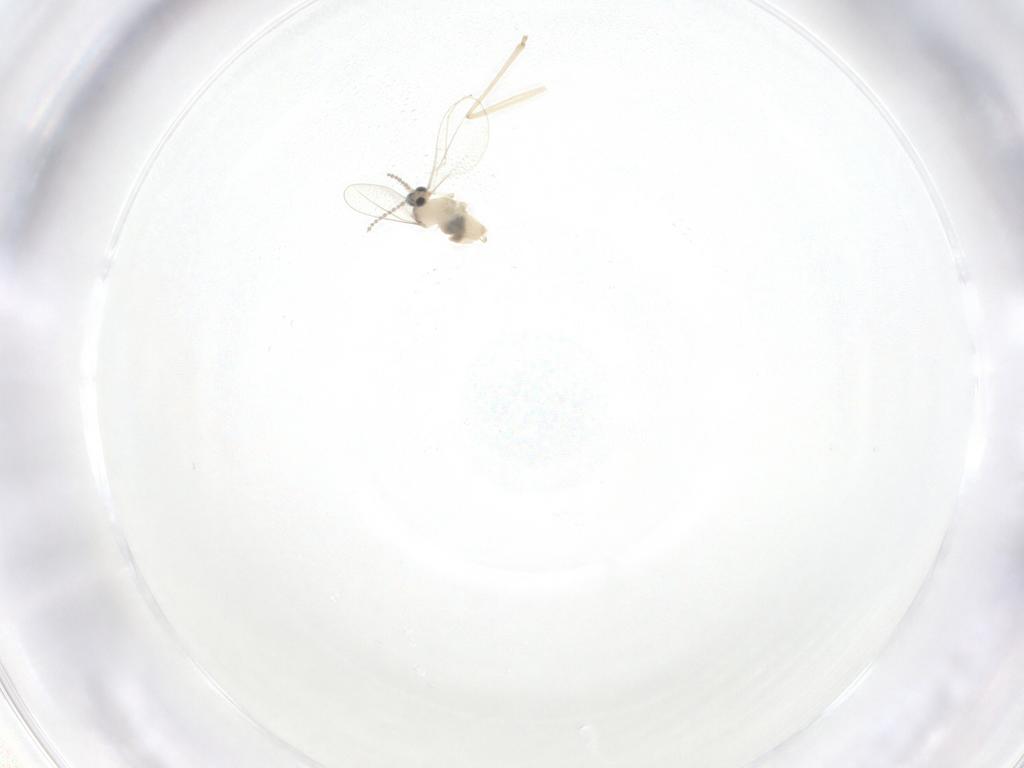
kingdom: Animalia
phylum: Arthropoda
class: Insecta
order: Diptera
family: Cecidomyiidae
